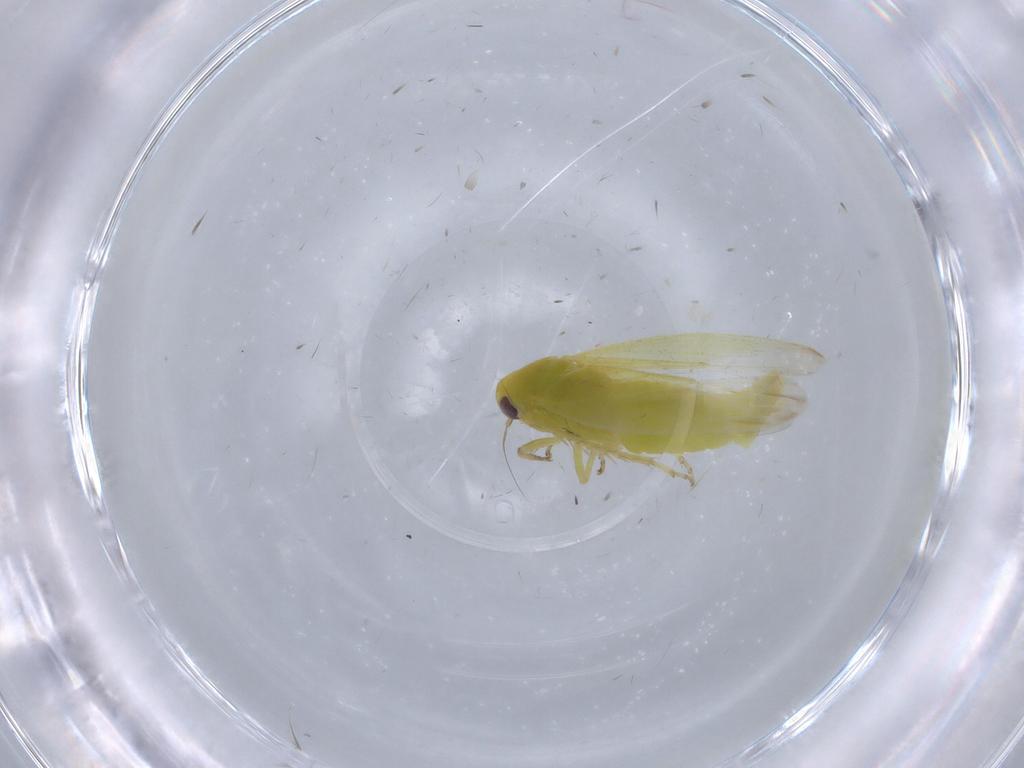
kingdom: Animalia
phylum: Arthropoda
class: Insecta
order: Hemiptera
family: Cicadellidae
